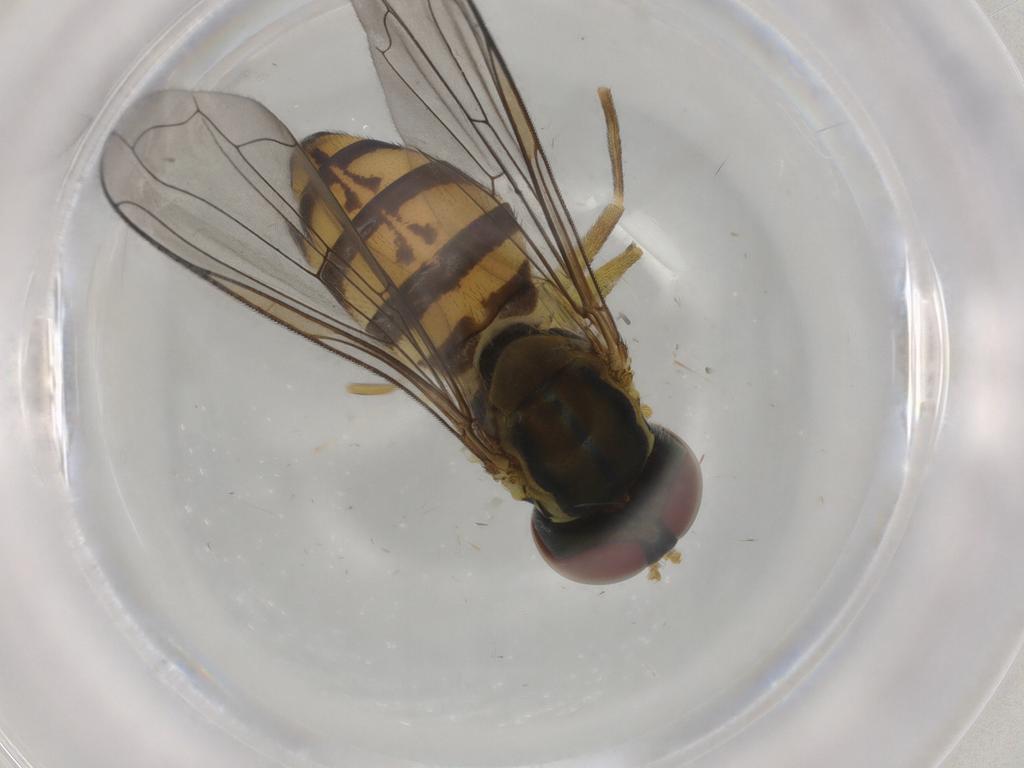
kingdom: Animalia
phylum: Arthropoda
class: Insecta
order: Diptera
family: Syrphidae
